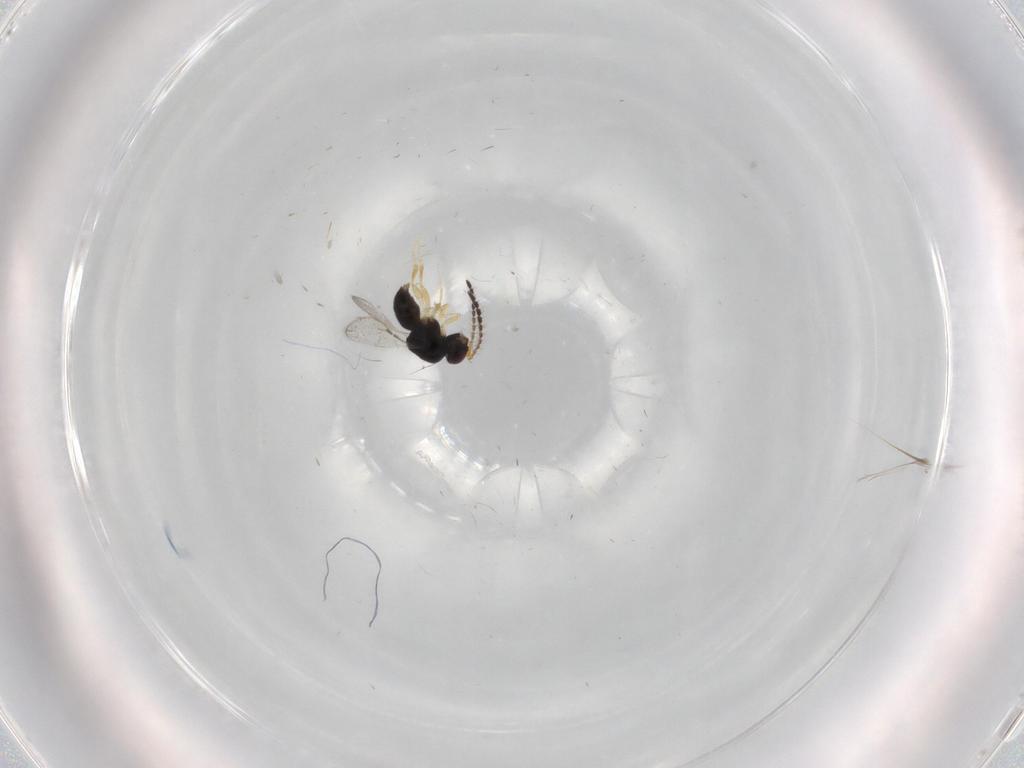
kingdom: Animalia
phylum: Arthropoda
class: Insecta
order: Hymenoptera
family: Ceraphronidae
